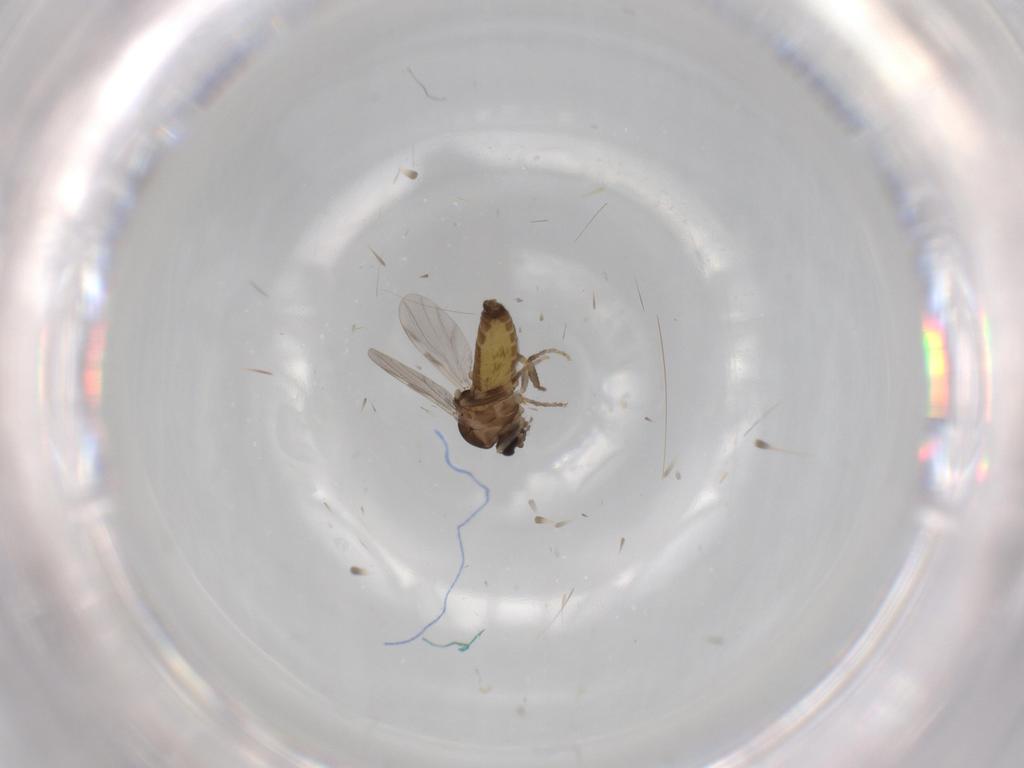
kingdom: Animalia
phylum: Arthropoda
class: Insecta
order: Diptera
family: Ceratopogonidae
